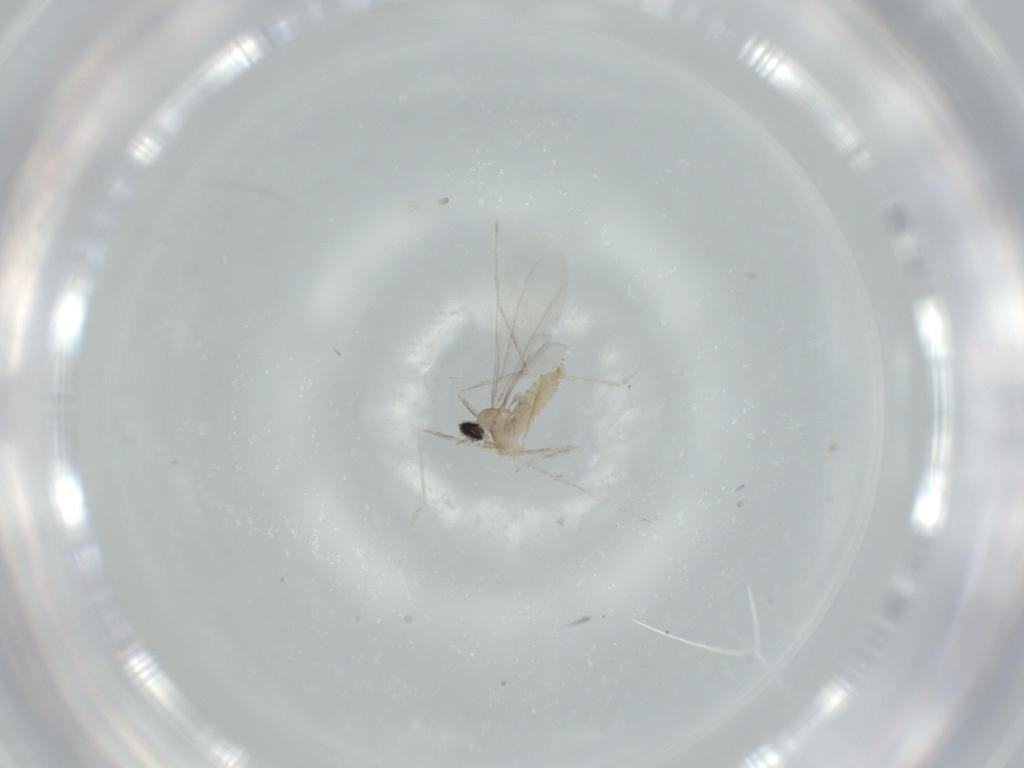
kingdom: Animalia
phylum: Arthropoda
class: Insecta
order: Diptera
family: Cecidomyiidae
